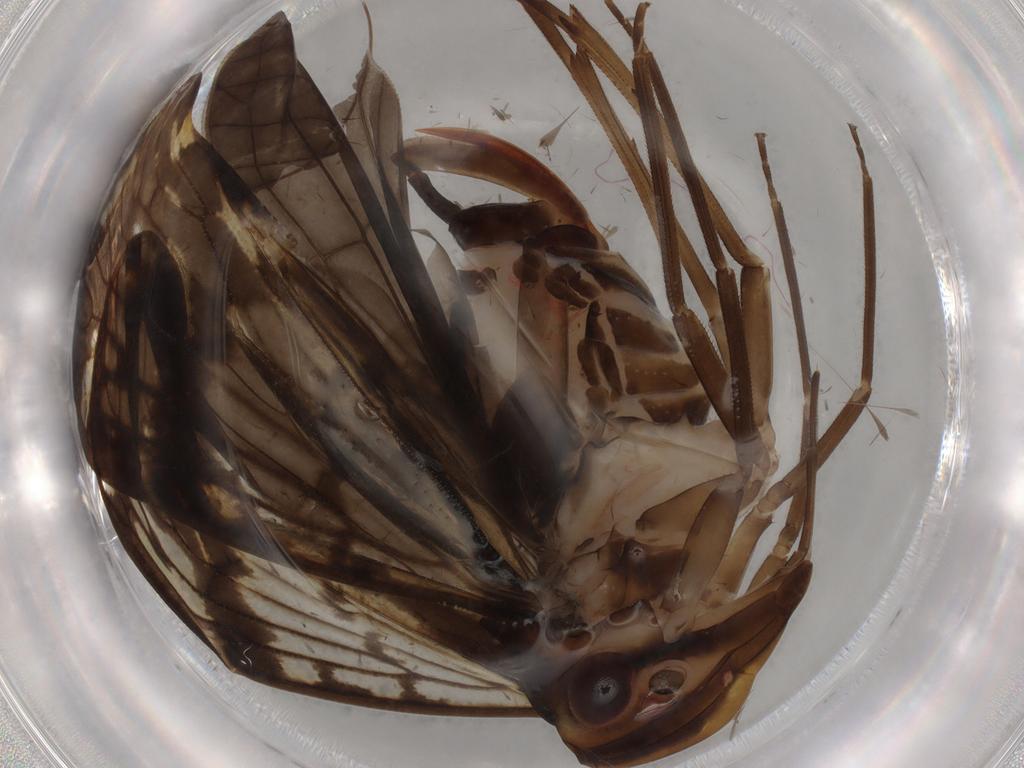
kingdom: Animalia
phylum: Arthropoda
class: Insecta
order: Hemiptera
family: Cixiidae
